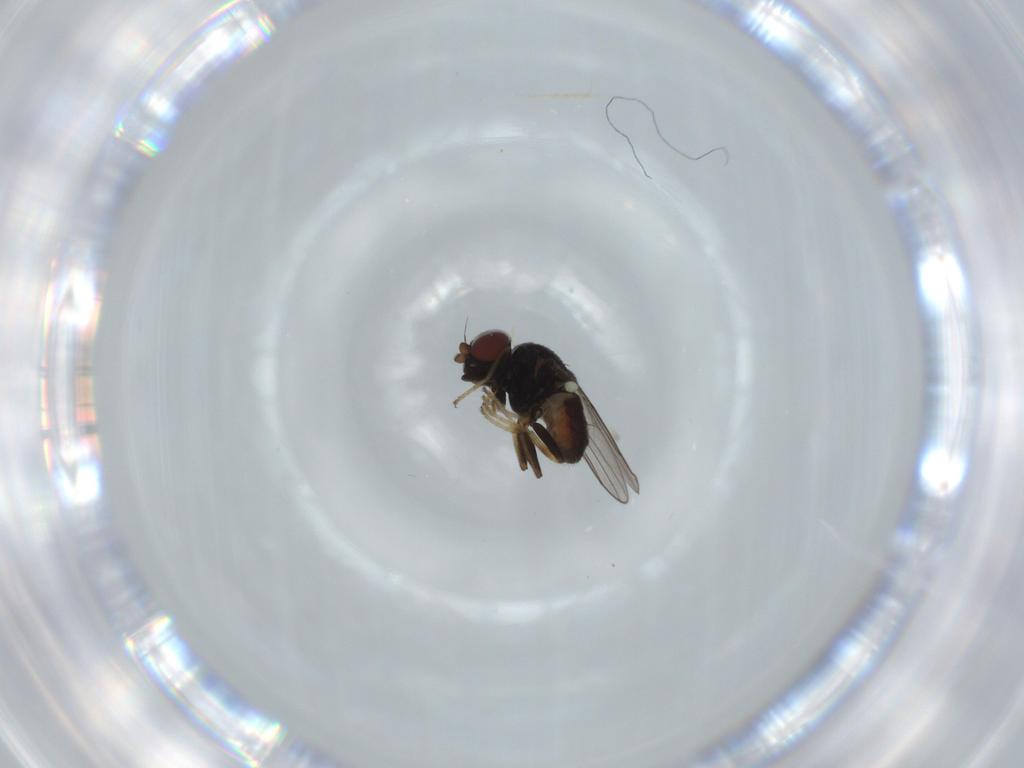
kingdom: Animalia
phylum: Arthropoda
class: Insecta
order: Diptera
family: Chloropidae
